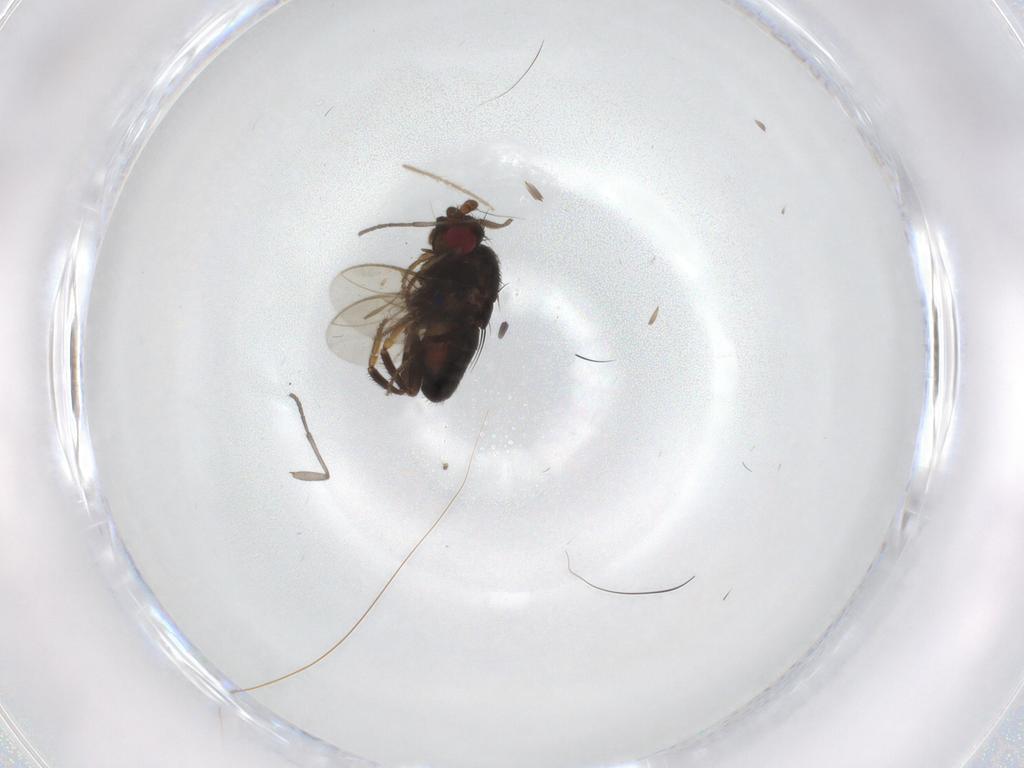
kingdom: Animalia
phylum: Arthropoda
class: Insecta
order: Diptera
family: Sciaridae
